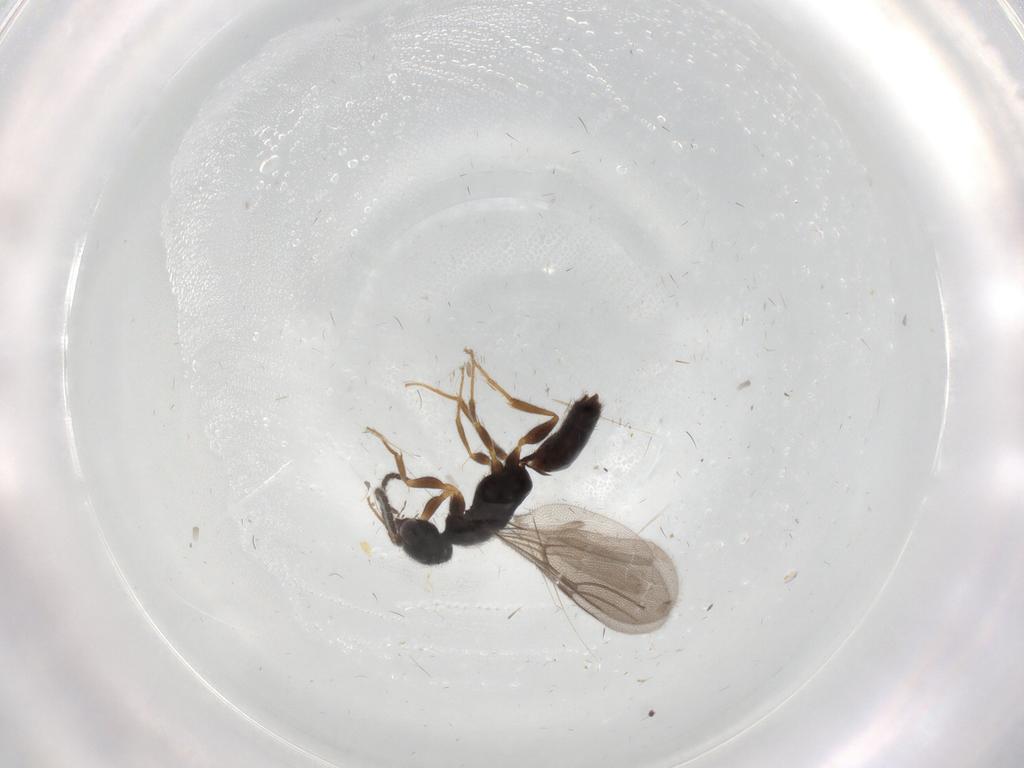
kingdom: Animalia
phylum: Arthropoda
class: Insecta
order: Hymenoptera
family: Bethylidae
